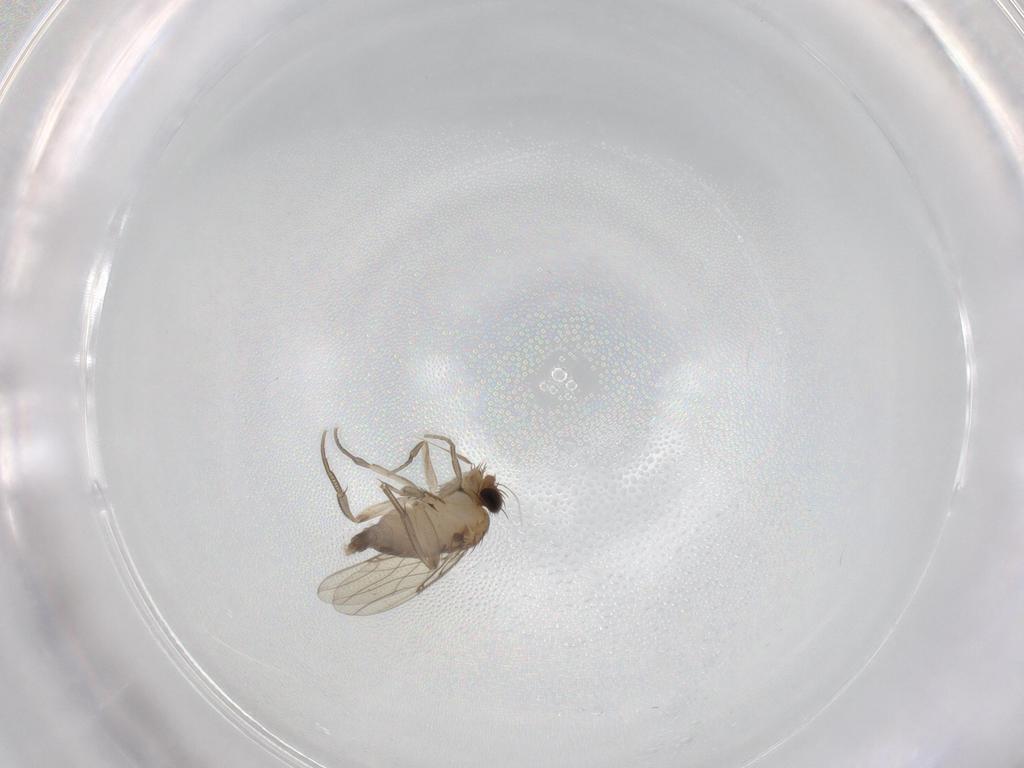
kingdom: Animalia
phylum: Arthropoda
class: Insecta
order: Diptera
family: Phoridae
